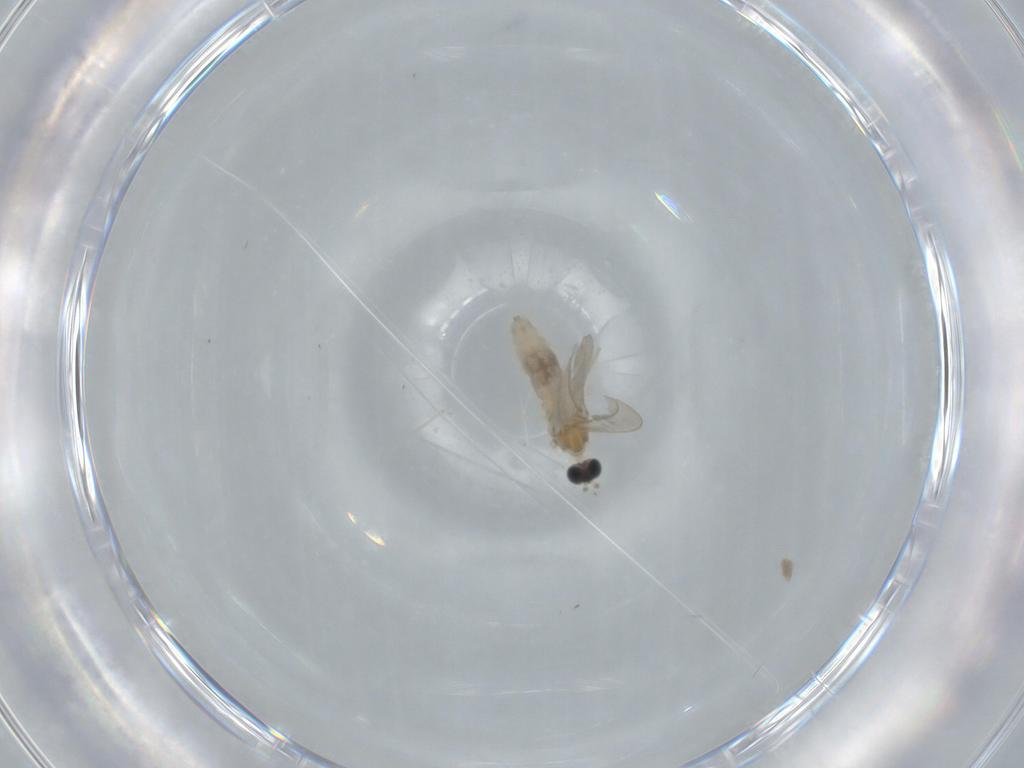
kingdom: Animalia
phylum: Arthropoda
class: Insecta
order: Diptera
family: Cecidomyiidae
